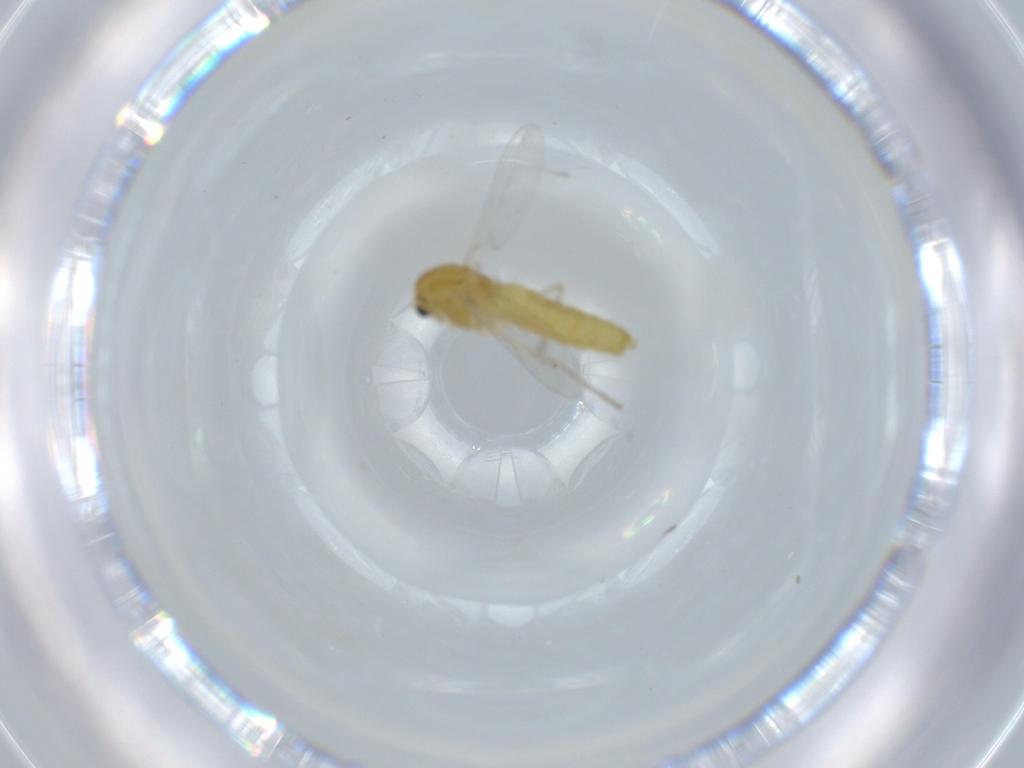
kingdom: Animalia
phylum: Arthropoda
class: Insecta
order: Diptera
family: Chironomidae
